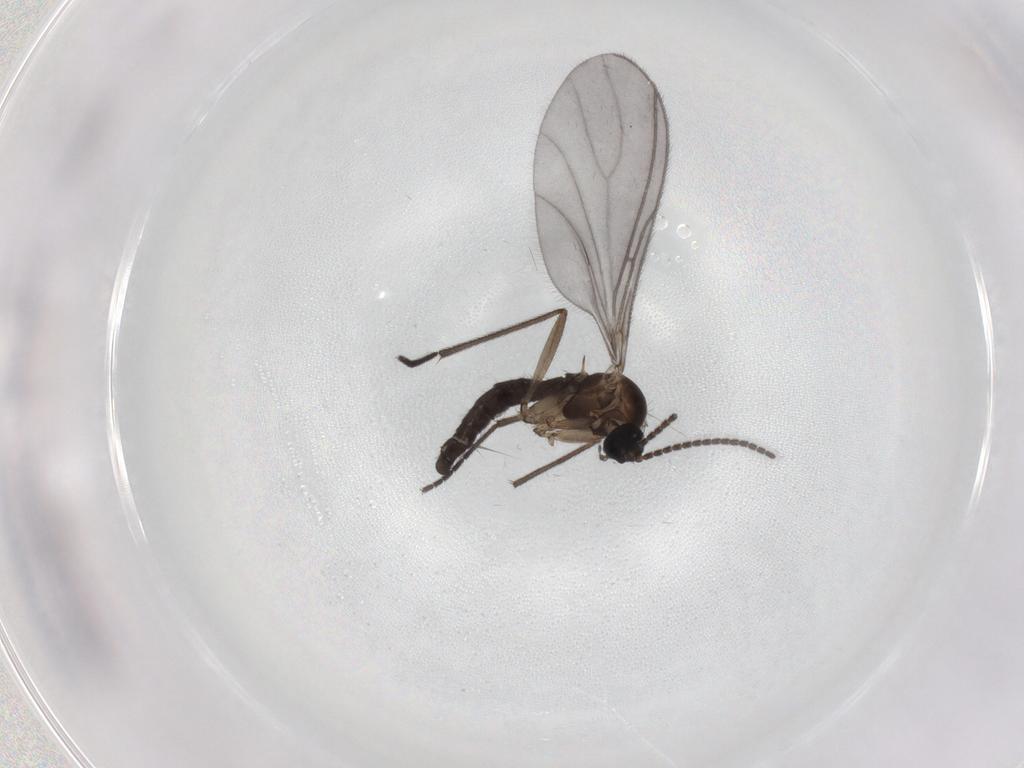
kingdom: Animalia
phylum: Arthropoda
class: Insecta
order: Diptera
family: Sciaridae
